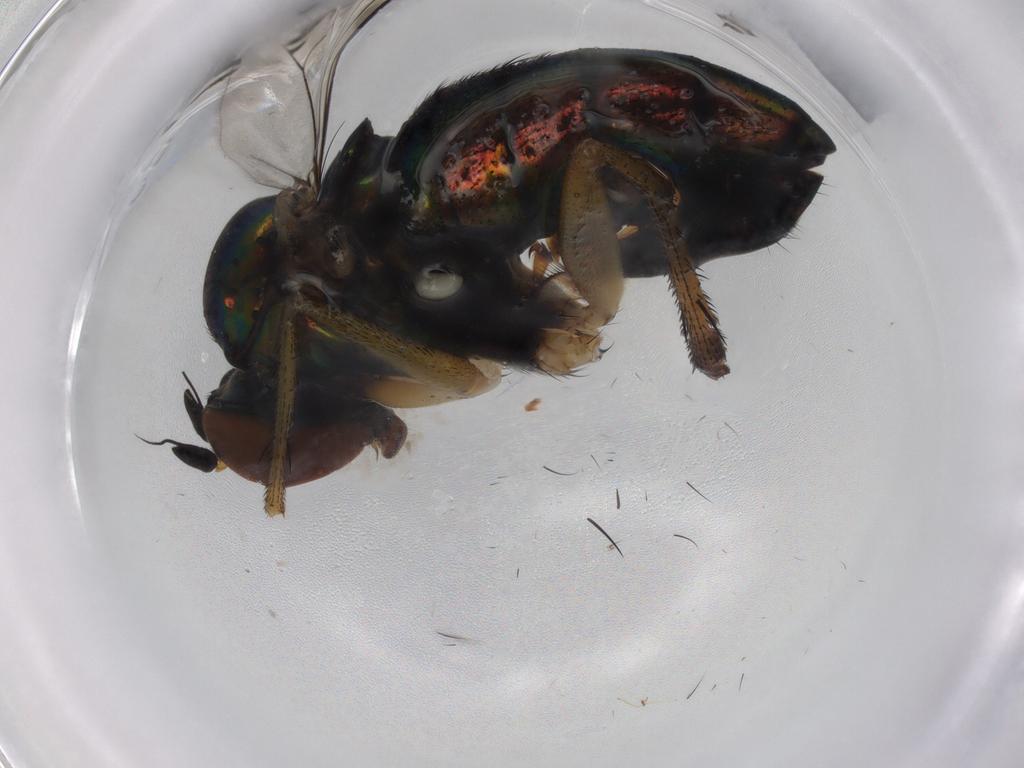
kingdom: Animalia
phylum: Arthropoda
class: Insecta
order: Diptera
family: Dolichopodidae
